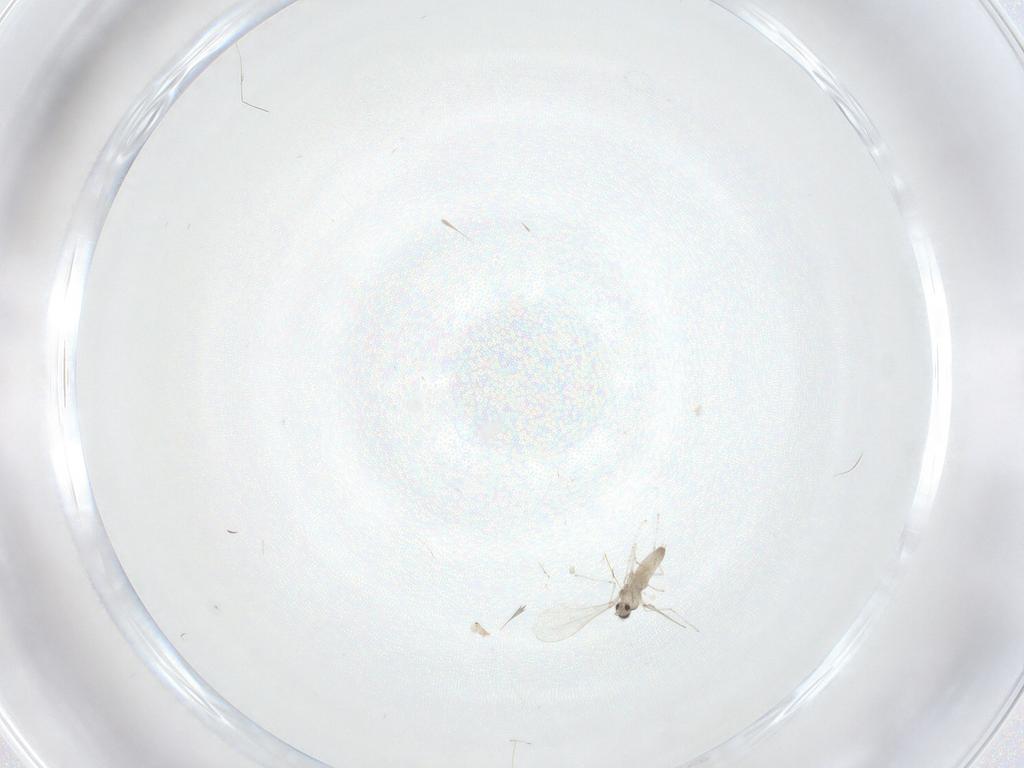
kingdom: Animalia
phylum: Arthropoda
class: Insecta
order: Diptera
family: Cecidomyiidae
